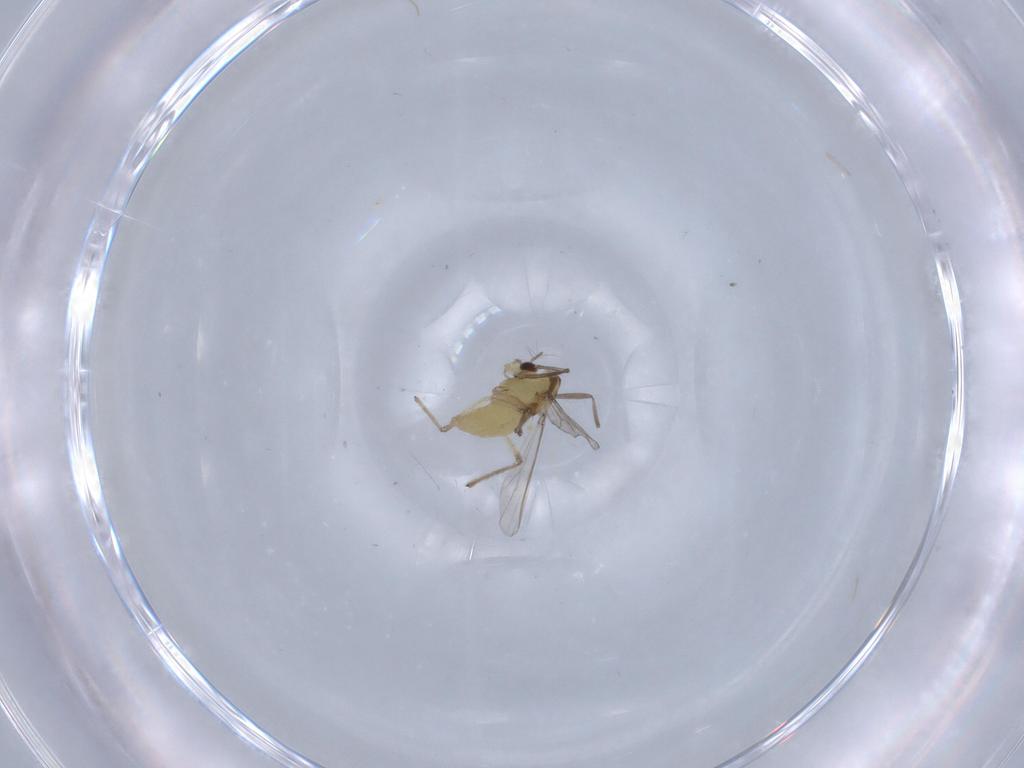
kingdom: Animalia
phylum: Arthropoda
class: Insecta
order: Diptera
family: Chironomidae
